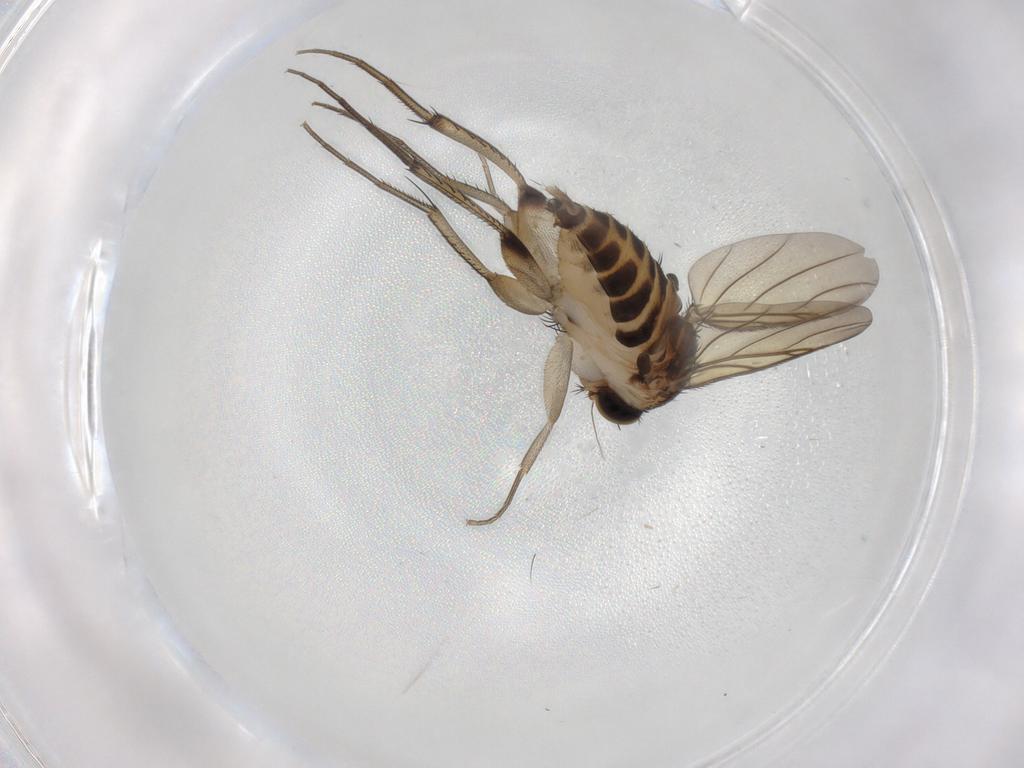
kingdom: Animalia
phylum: Arthropoda
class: Insecta
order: Diptera
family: Phoridae
